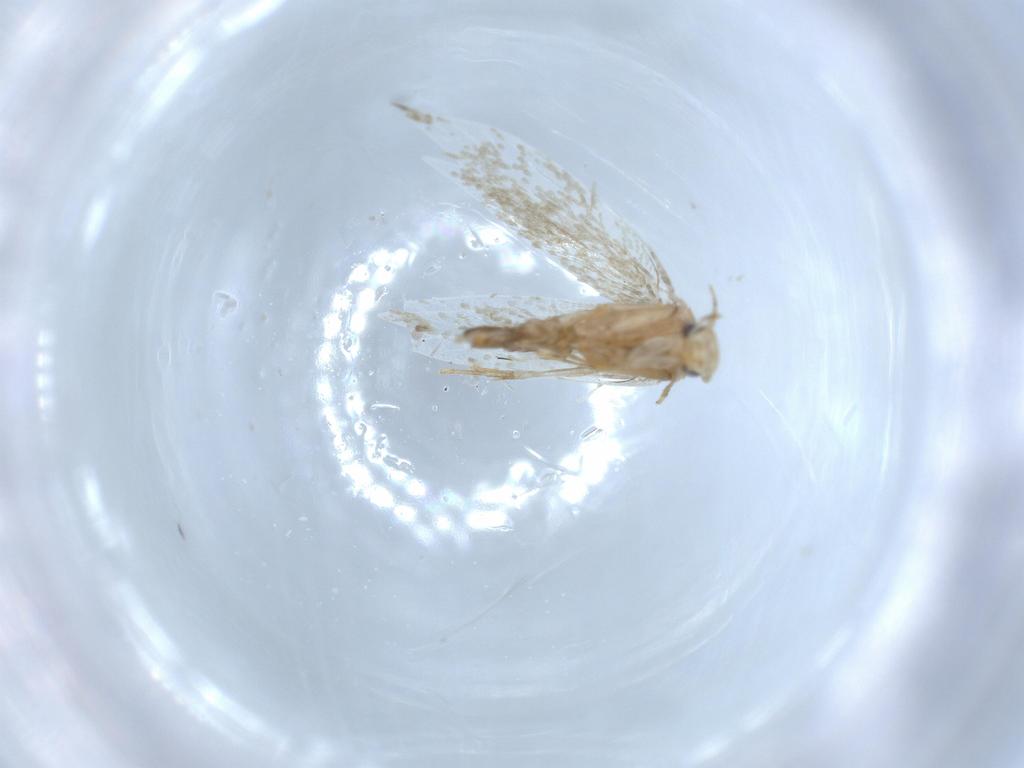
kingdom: Animalia
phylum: Arthropoda
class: Insecta
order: Lepidoptera
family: Tineidae
